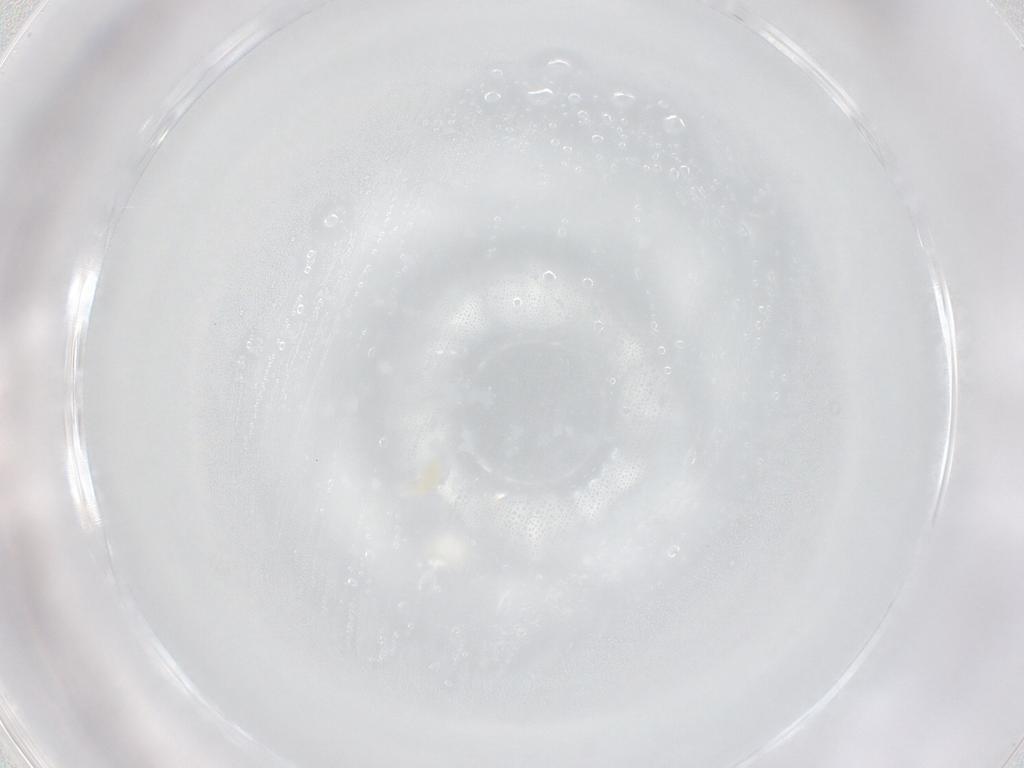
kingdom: Animalia
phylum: Arthropoda
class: Arachnida
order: Trombidiformes
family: Eupodidae
